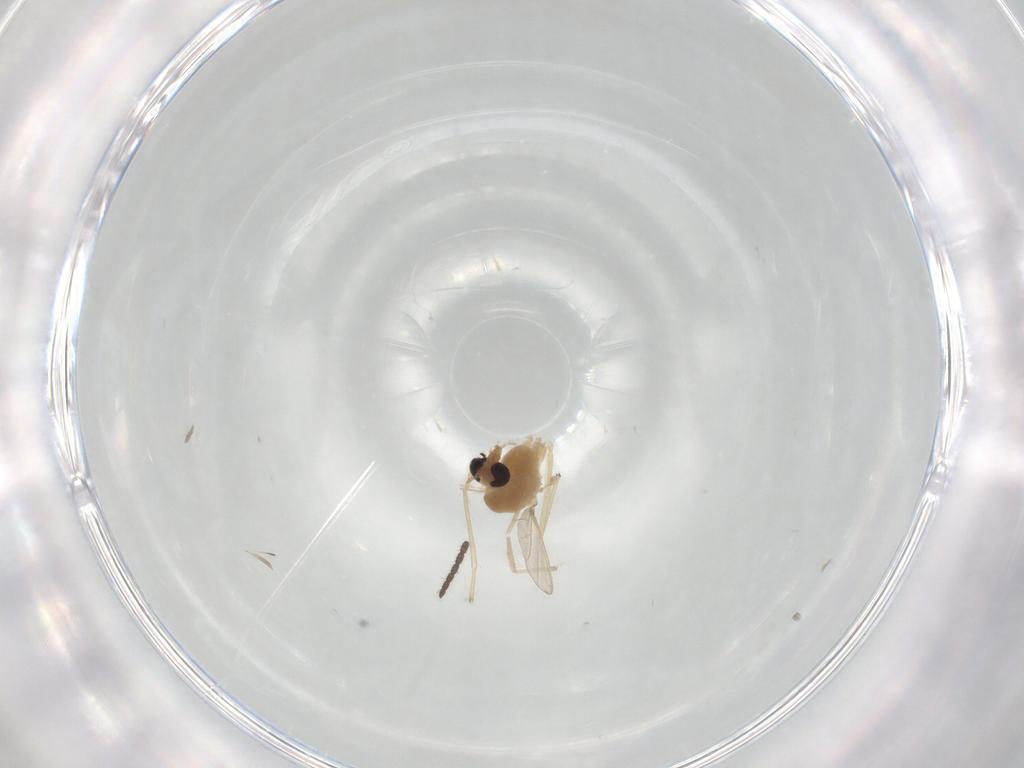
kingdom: Animalia
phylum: Arthropoda
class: Insecta
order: Diptera
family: Chironomidae
